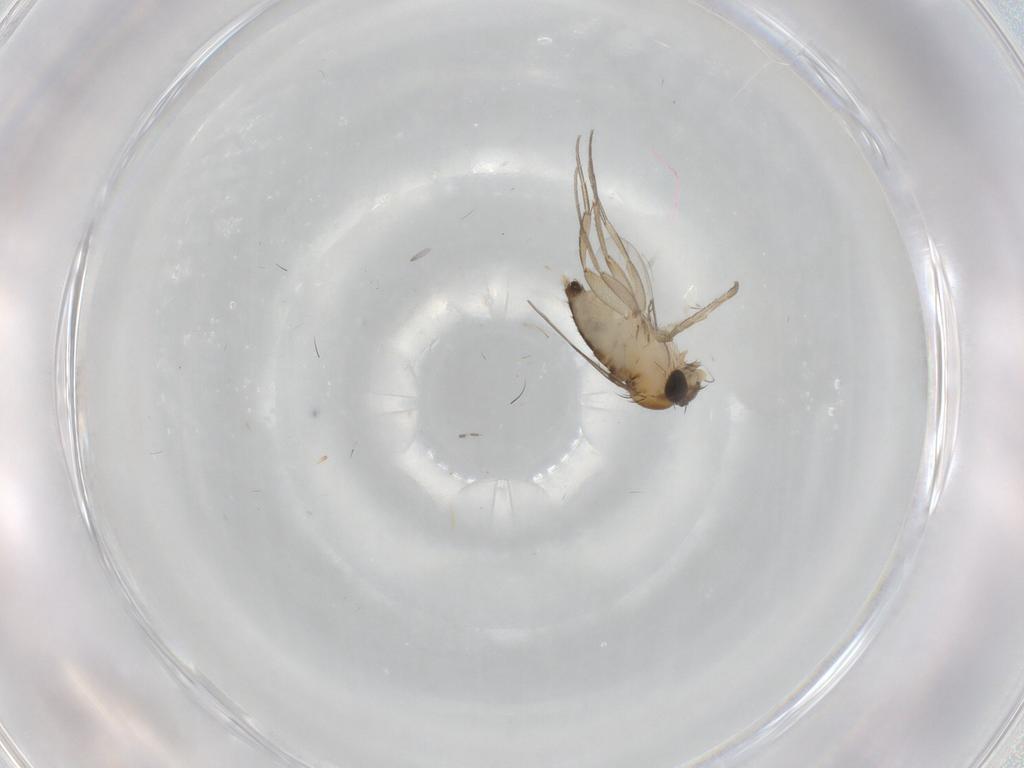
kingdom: Animalia
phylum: Arthropoda
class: Insecta
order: Diptera
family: Phoridae
